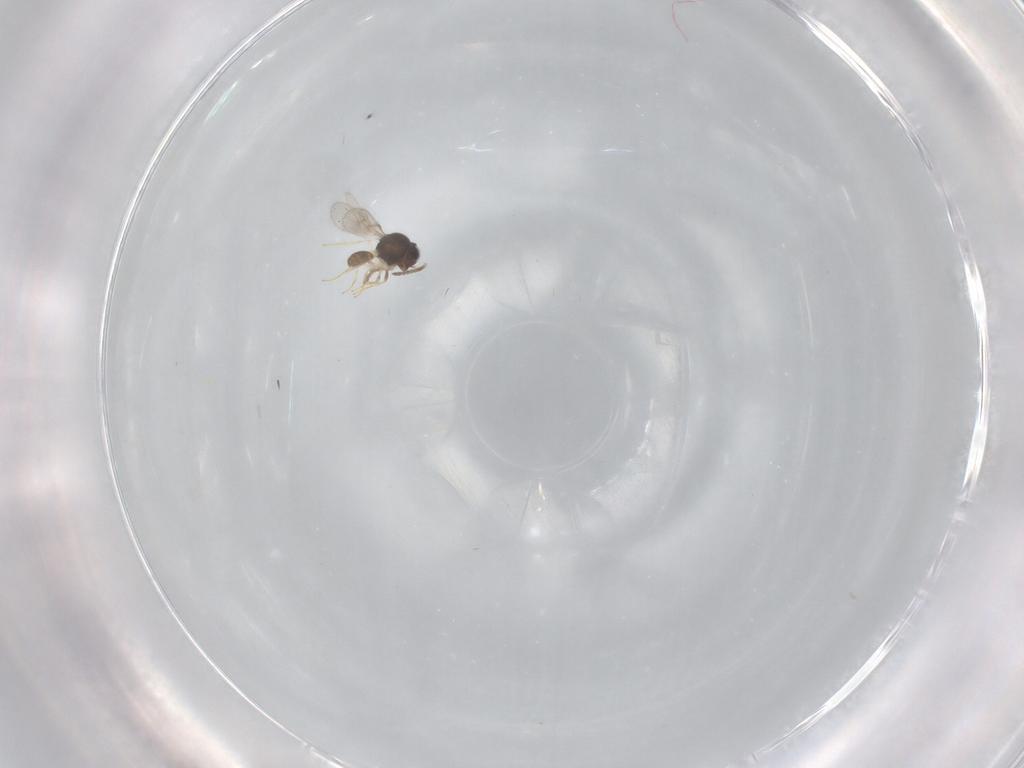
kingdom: Animalia
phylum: Arthropoda
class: Insecta
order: Hymenoptera
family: Scelionidae
